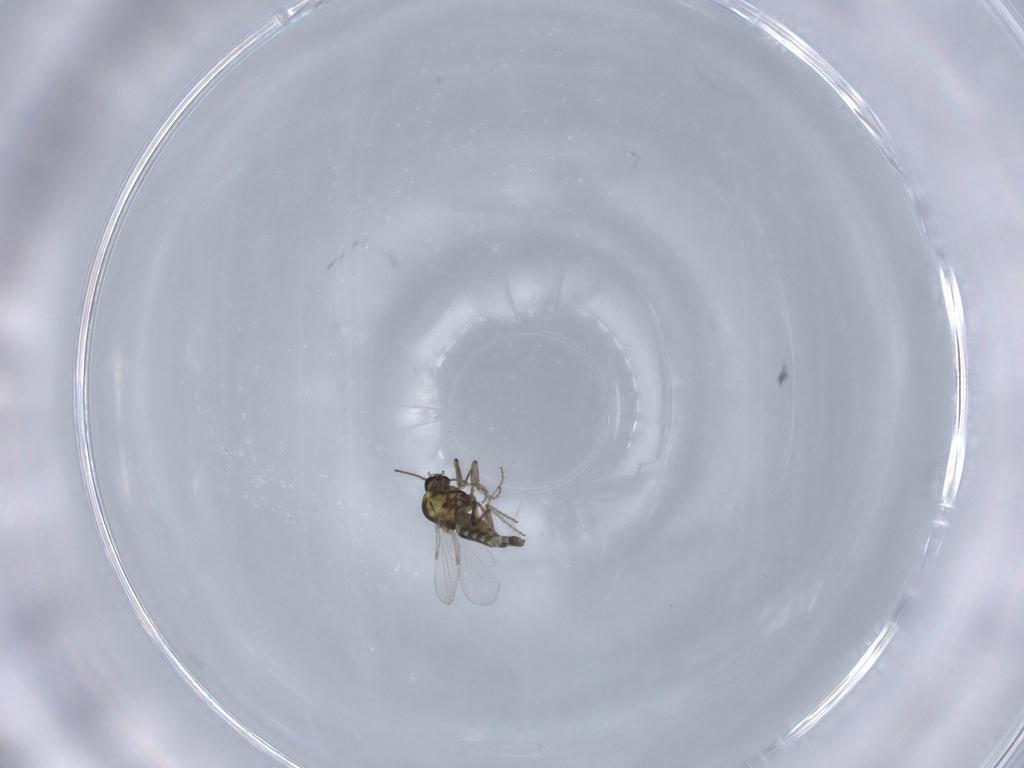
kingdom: Animalia
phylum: Arthropoda
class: Insecta
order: Diptera
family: Ceratopogonidae
